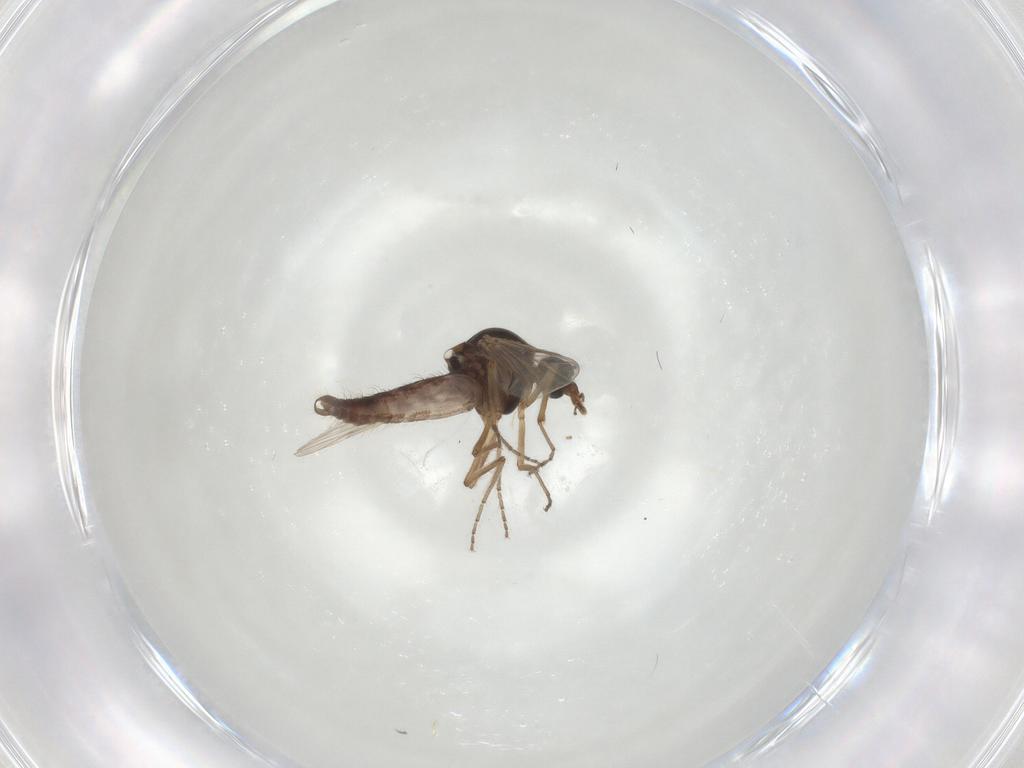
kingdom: Animalia
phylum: Arthropoda
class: Insecta
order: Diptera
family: Ceratopogonidae
